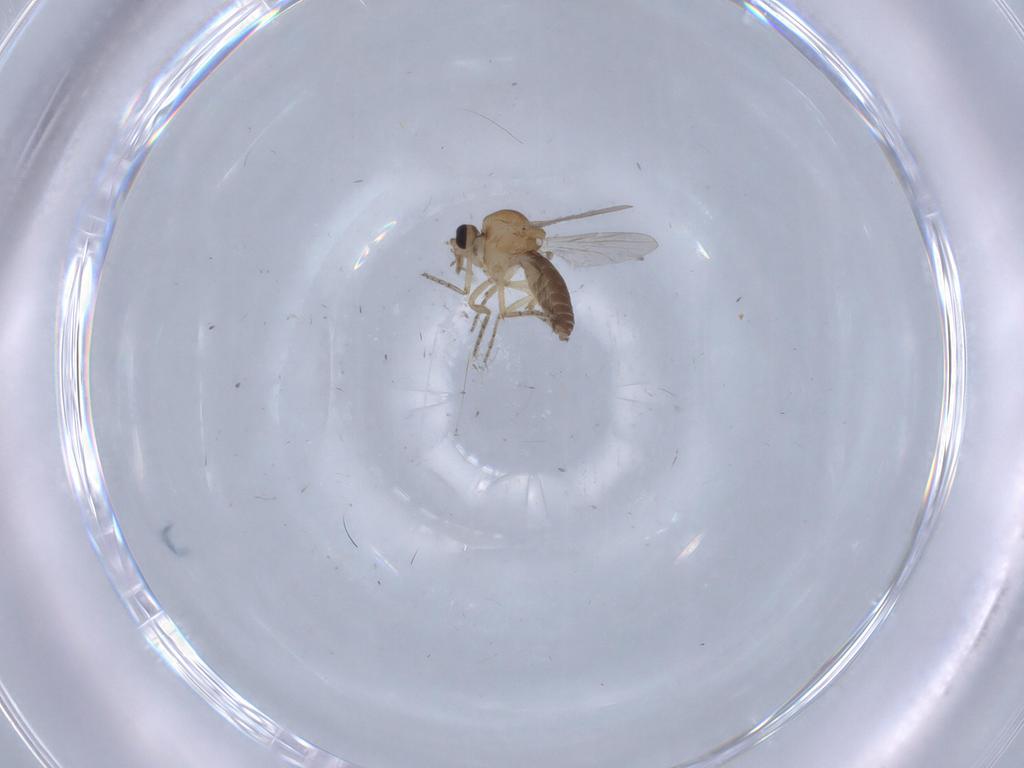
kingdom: Animalia
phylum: Arthropoda
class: Insecta
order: Diptera
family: Ceratopogonidae
